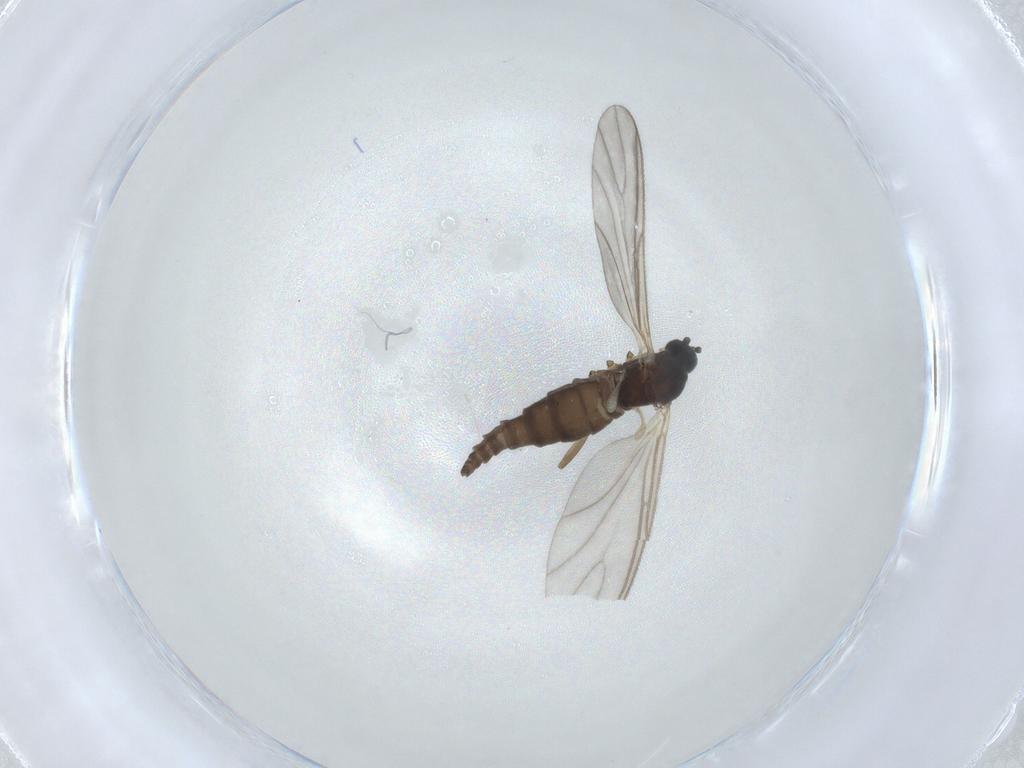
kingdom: Animalia
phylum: Arthropoda
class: Insecta
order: Diptera
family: Sciaridae
